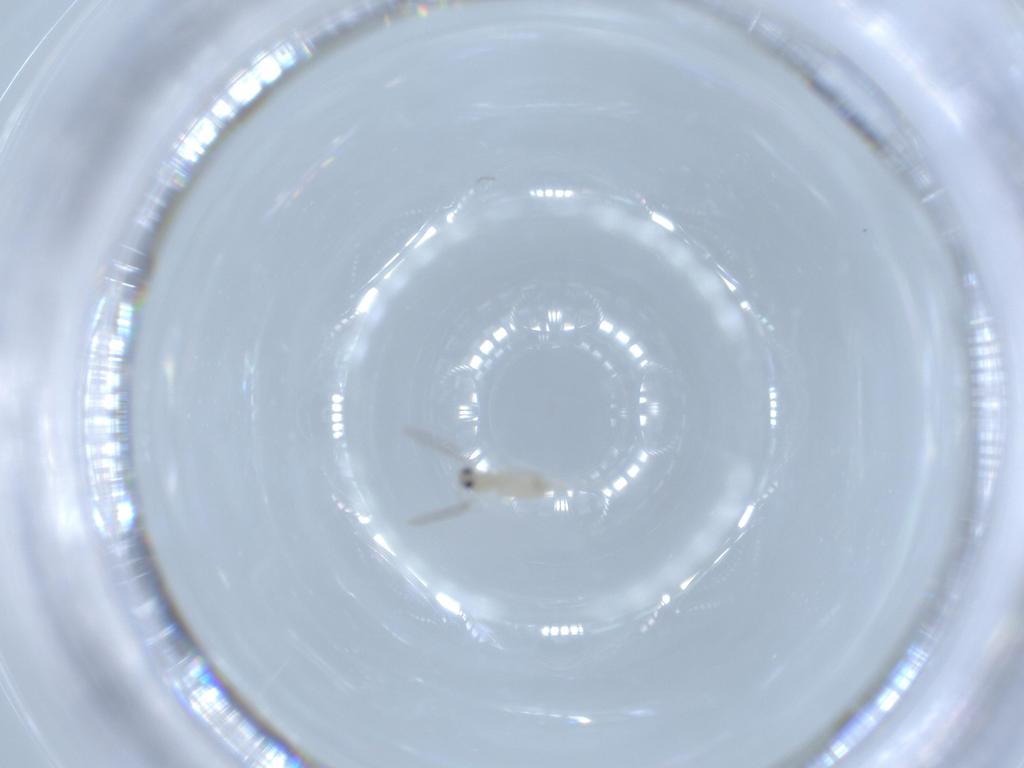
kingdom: Animalia
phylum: Arthropoda
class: Insecta
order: Diptera
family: Cecidomyiidae
